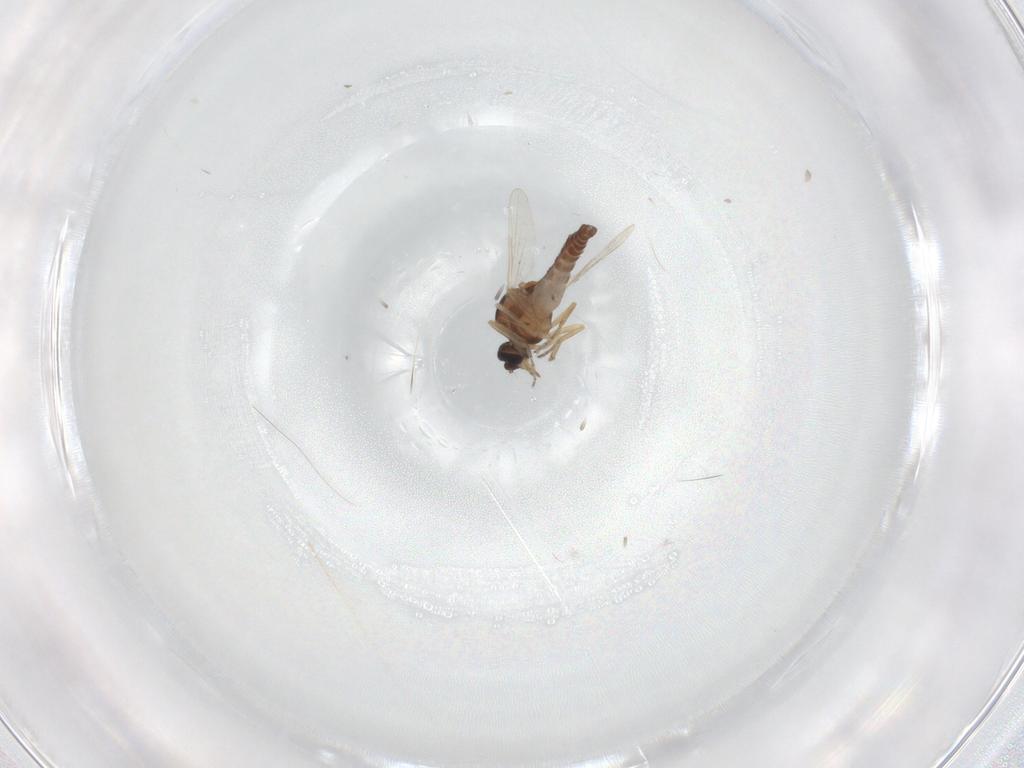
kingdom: Animalia
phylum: Arthropoda
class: Insecta
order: Diptera
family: Ceratopogonidae
